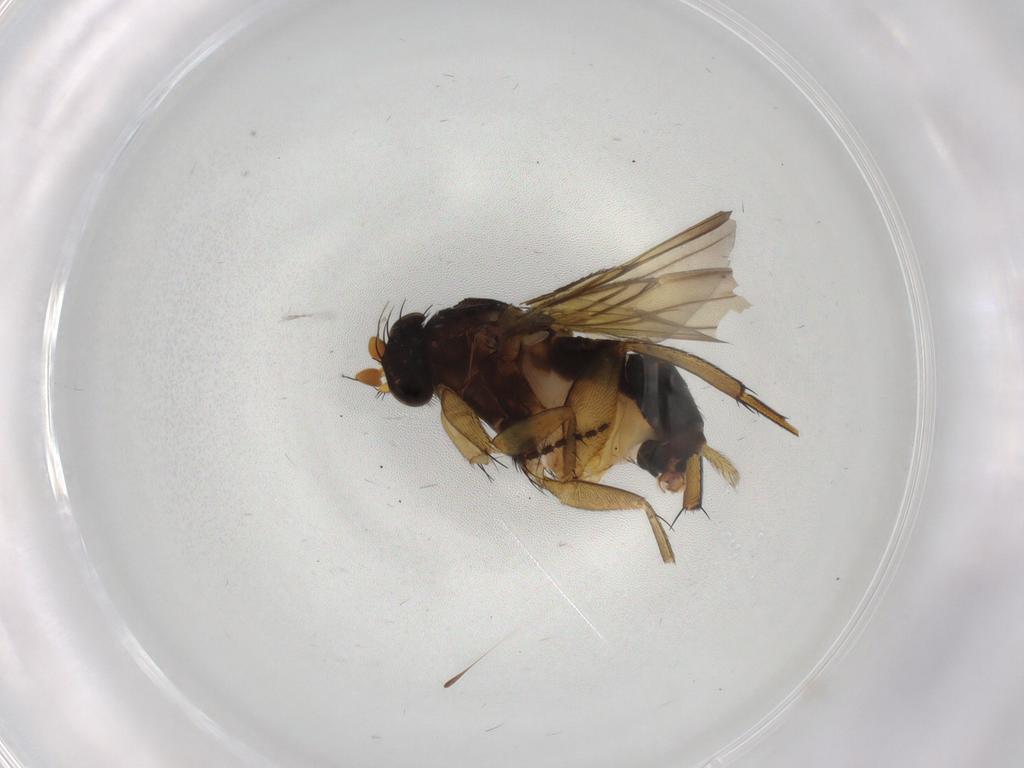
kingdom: Animalia
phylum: Arthropoda
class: Insecta
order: Diptera
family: Phoridae
